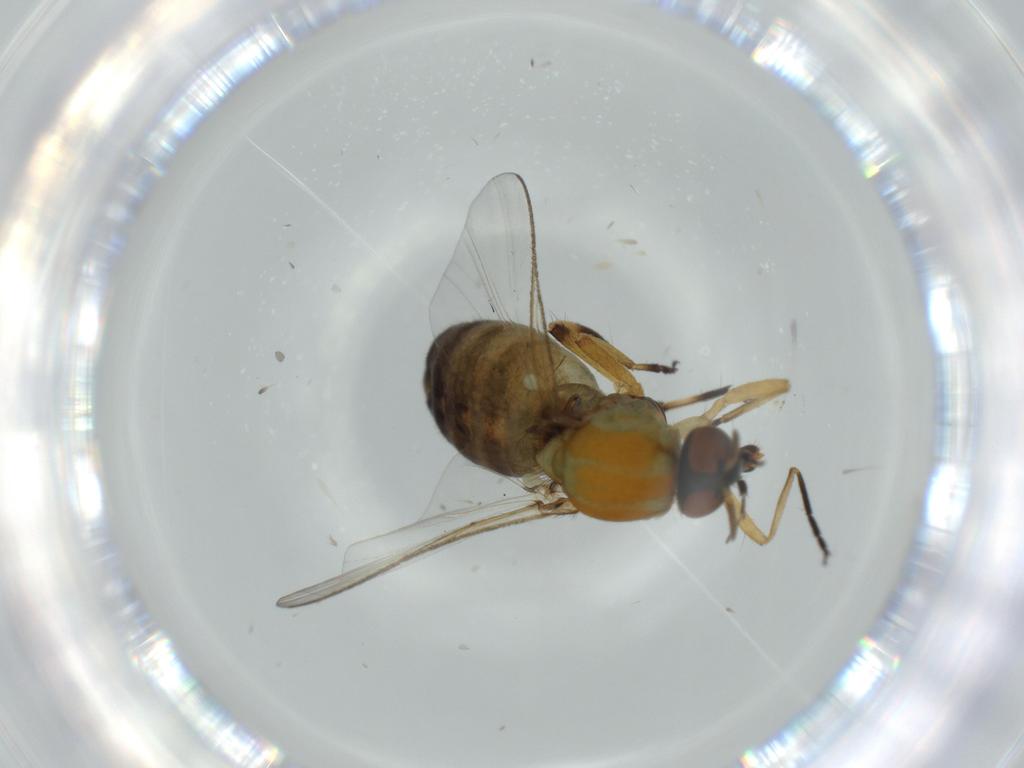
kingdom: Animalia
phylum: Arthropoda
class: Insecta
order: Diptera
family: Simuliidae
